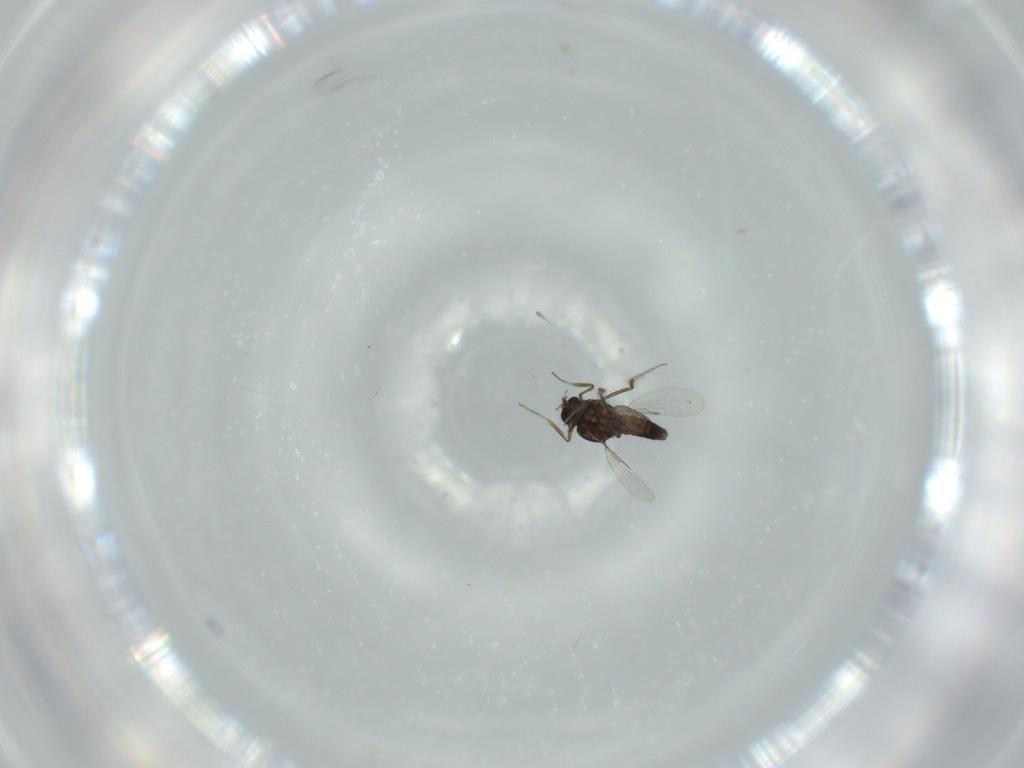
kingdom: Animalia
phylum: Arthropoda
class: Insecta
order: Diptera
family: Ceratopogonidae
